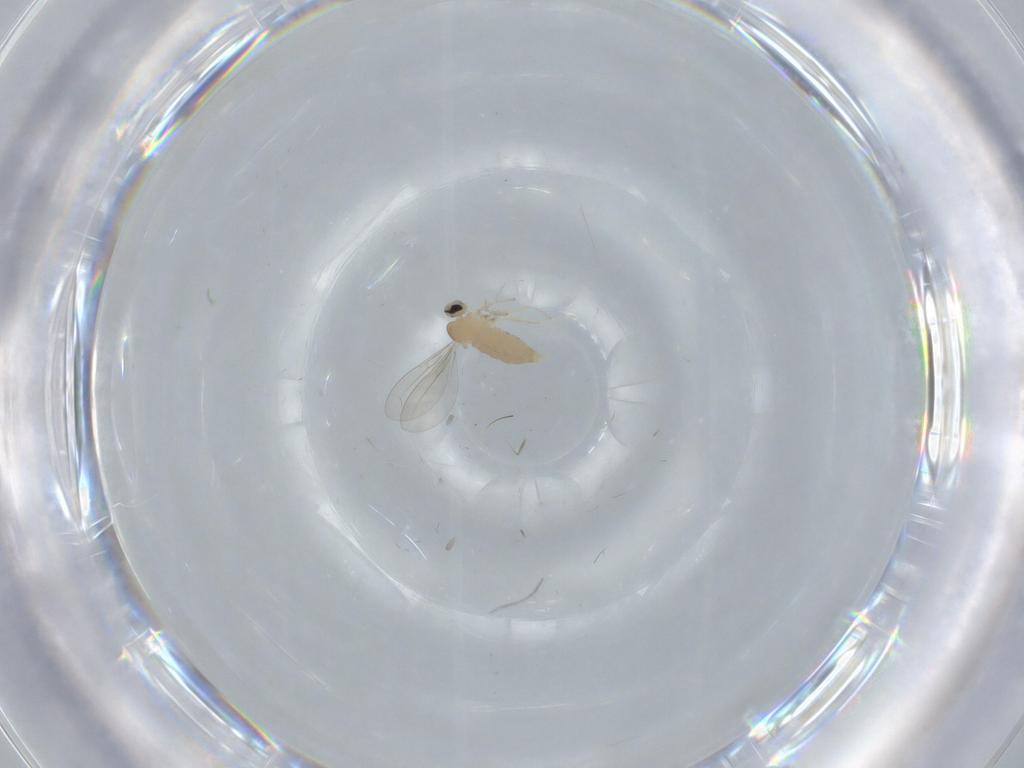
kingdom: Animalia
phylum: Arthropoda
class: Insecta
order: Diptera
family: Cecidomyiidae
